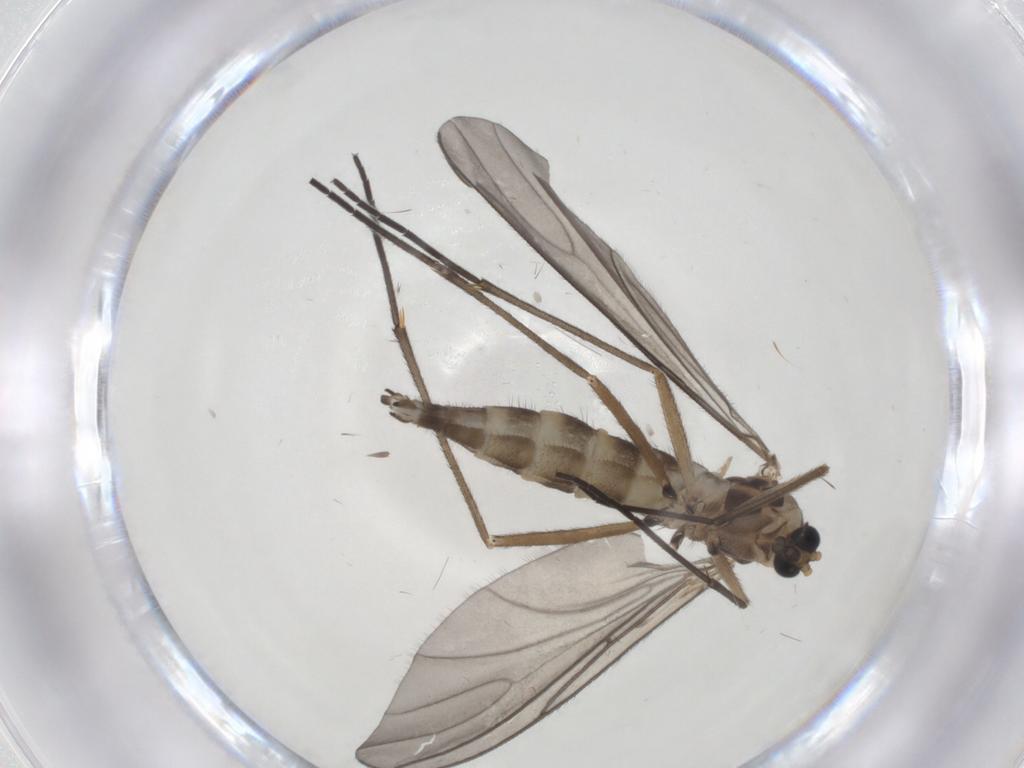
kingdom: Animalia
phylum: Arthropoda
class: Insecta
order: Diptera
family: Sciaridae
